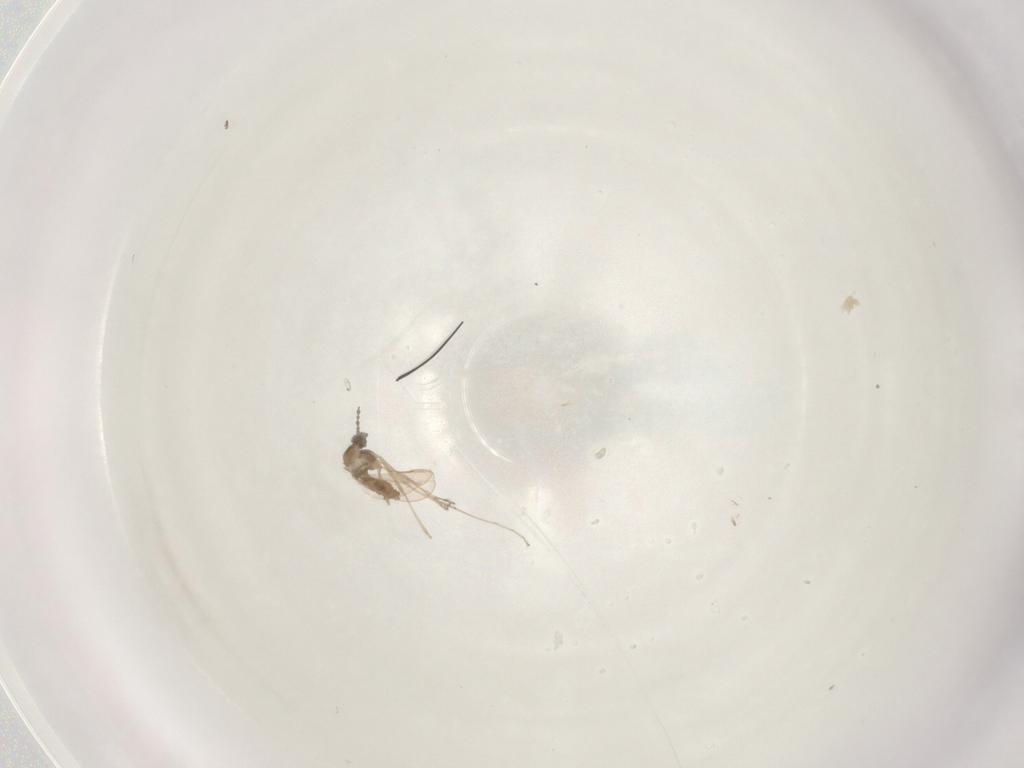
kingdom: Animalia
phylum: Arthropoda
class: Insecta
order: Diptera
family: Cecidomyiidae
